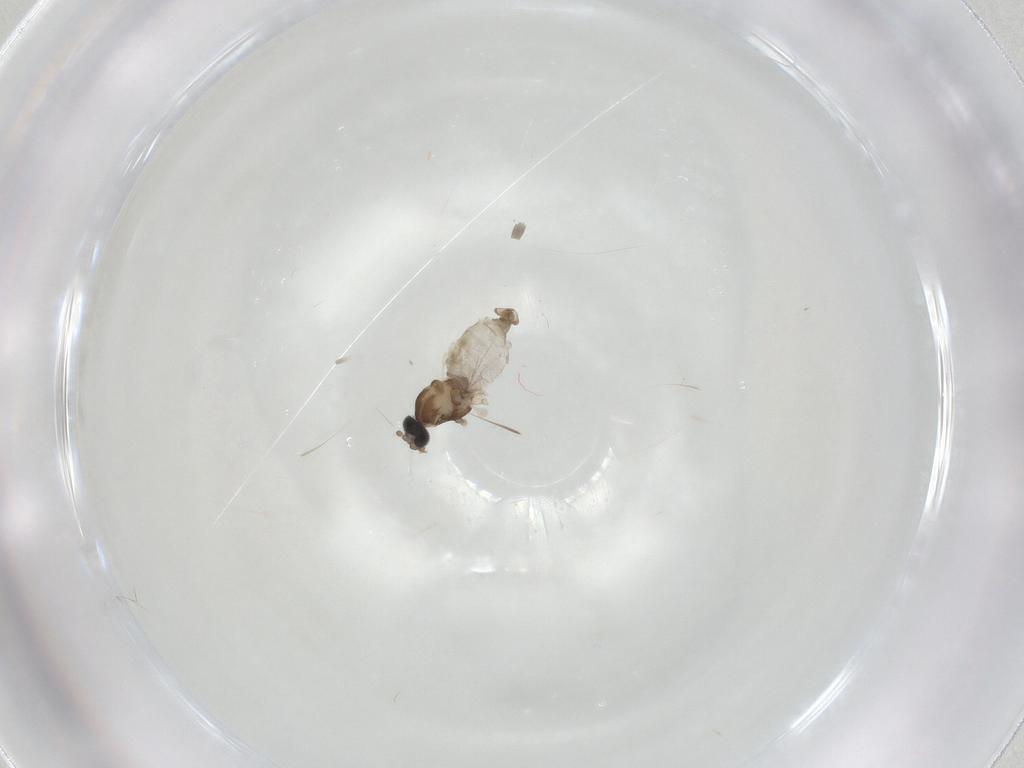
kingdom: Animalia
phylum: Arthropoda
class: Insecta
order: Diptera
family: Cecidomyiidae
